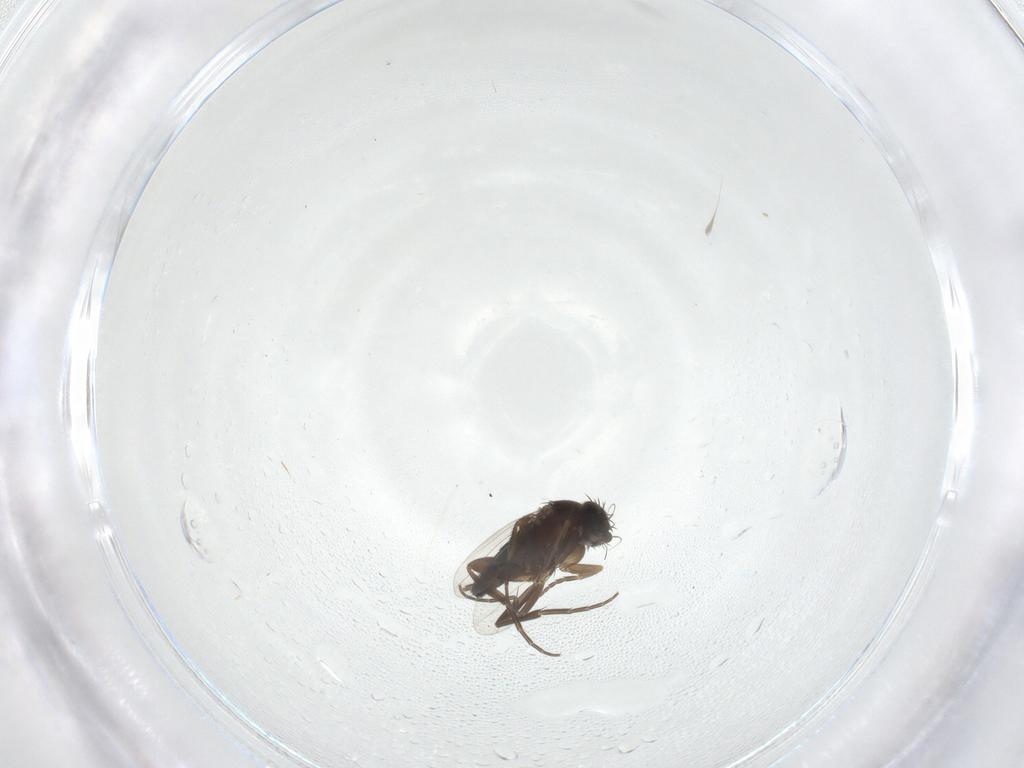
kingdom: Animalia
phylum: Arthropoda
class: Insecta
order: Diptera
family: Phoridae
